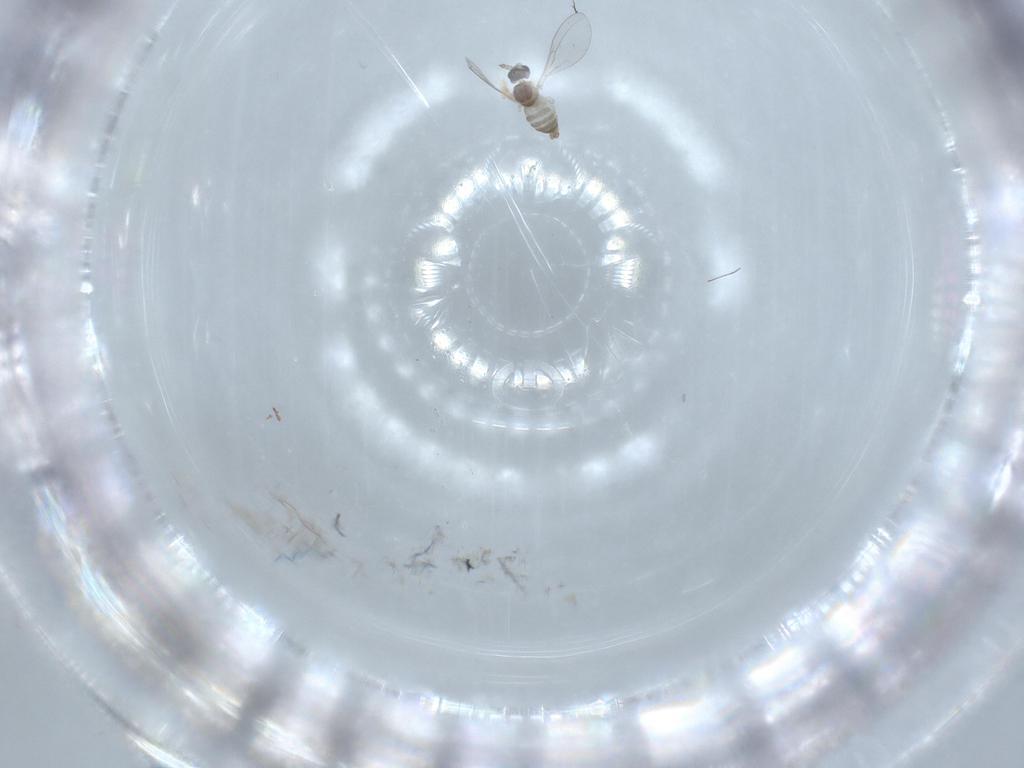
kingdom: Animalia
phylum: Arthropoda
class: Insecta
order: Diptera
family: Cecidomyiidae
